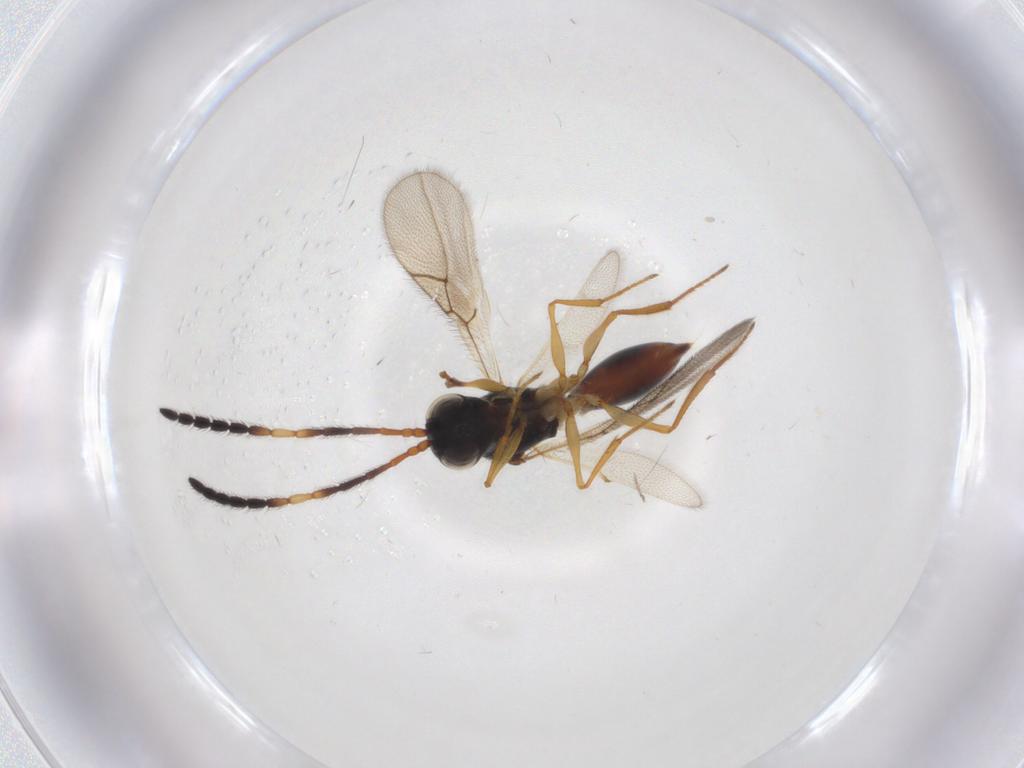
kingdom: Animalia
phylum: Arthropoda
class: Insecta
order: Hymenoptera
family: Figitidae
